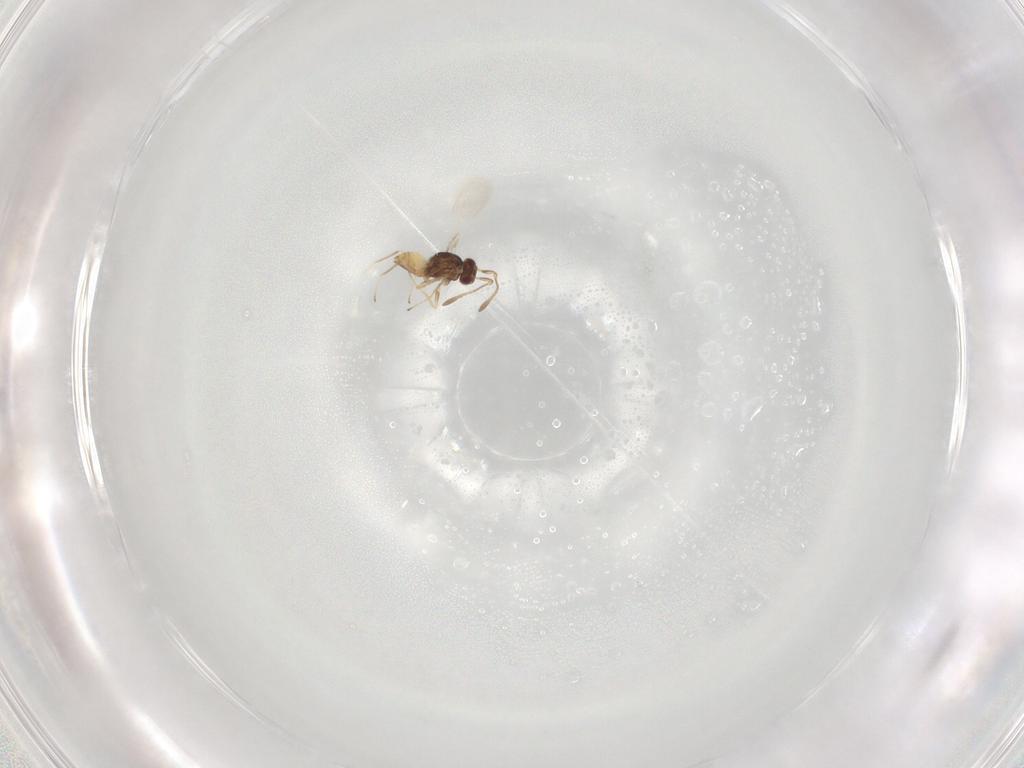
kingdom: Animalia
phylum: Arthropoda
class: Insecta
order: Hymenoptera
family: Mymaridae
